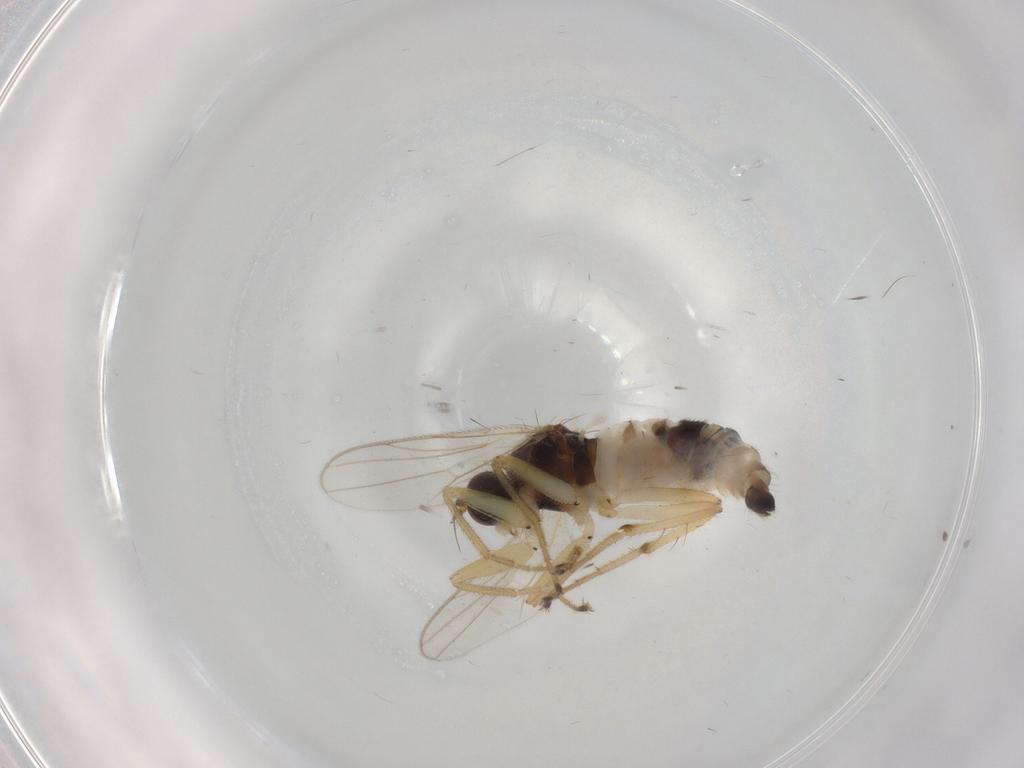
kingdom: Animalia
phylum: Arthropoda
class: Insecta
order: Diptera
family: Hybotidae
